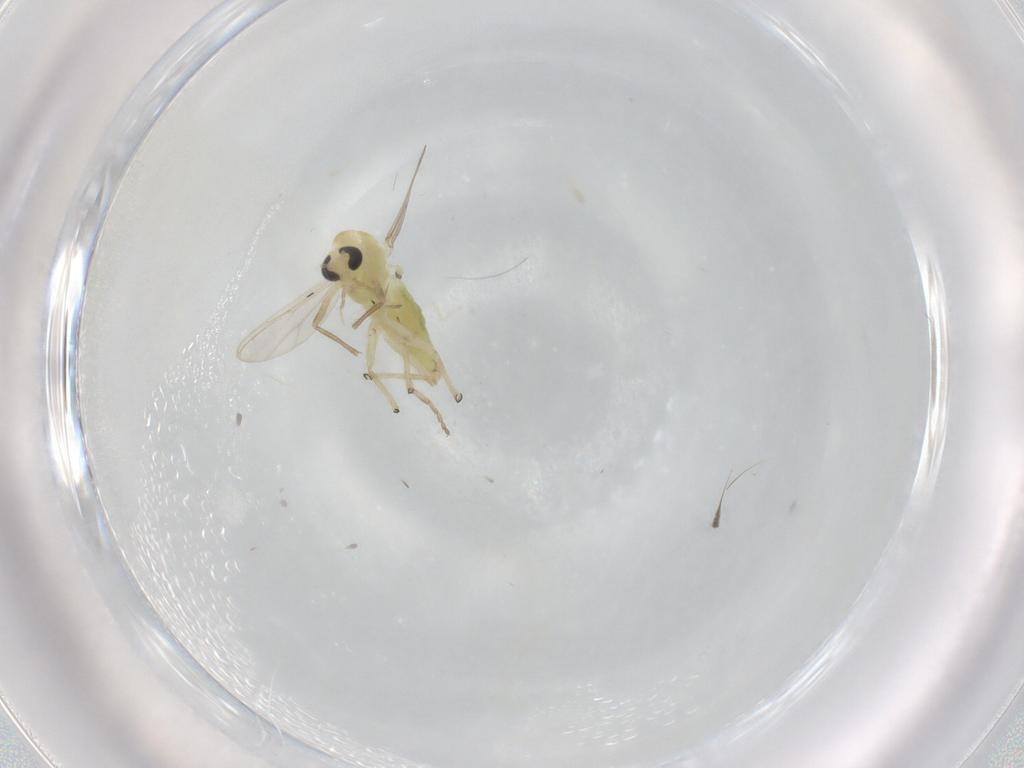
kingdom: Animalia
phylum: Arthropoda
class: Insecta
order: Diptera
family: Chironomidae
